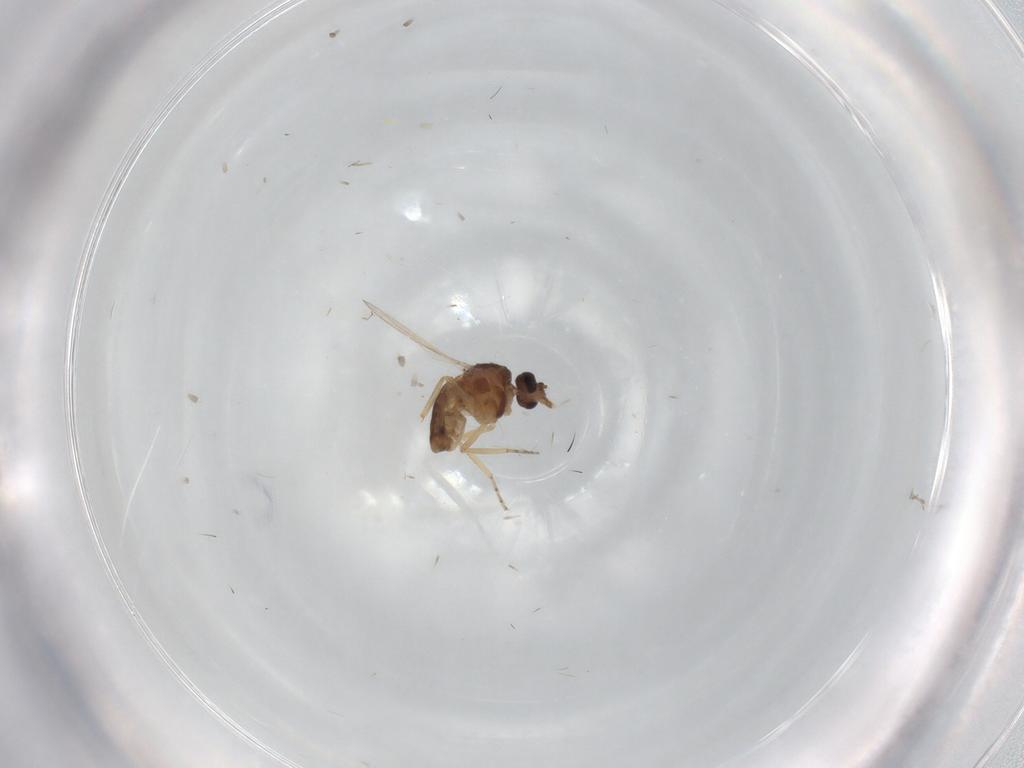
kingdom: Animalia
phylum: Arthropoda
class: Insecta
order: Diptera
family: Ceratopogonidae
